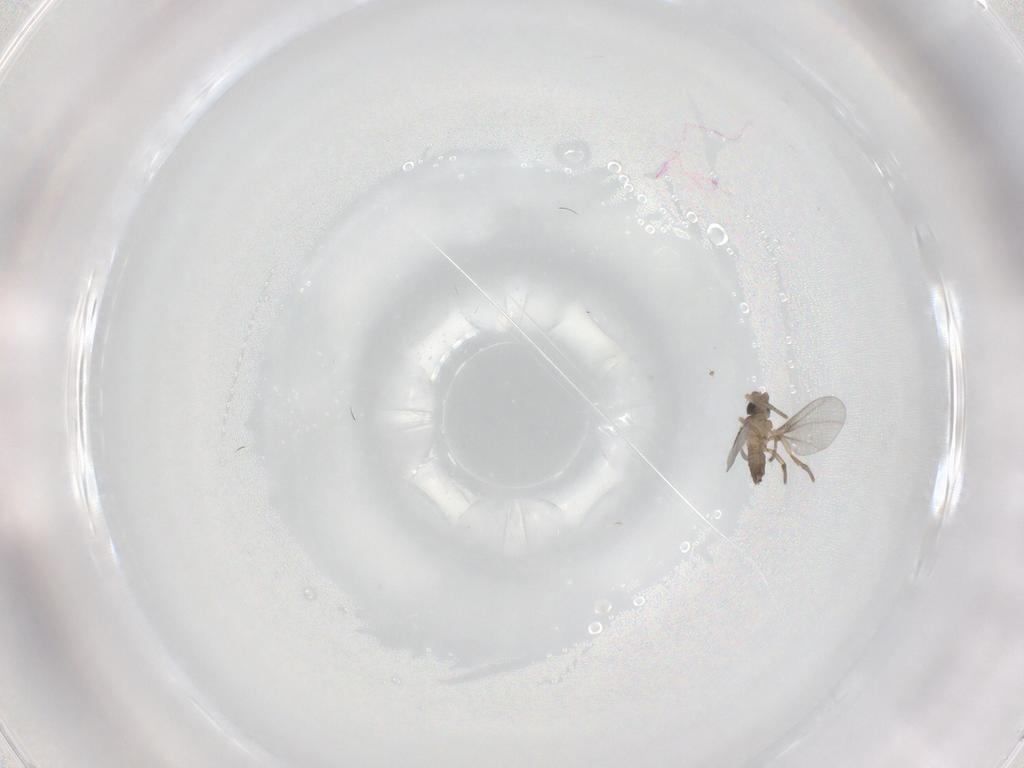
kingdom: Animalia
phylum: Arthropoda
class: Insecta
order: Diptera
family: Phoridae
